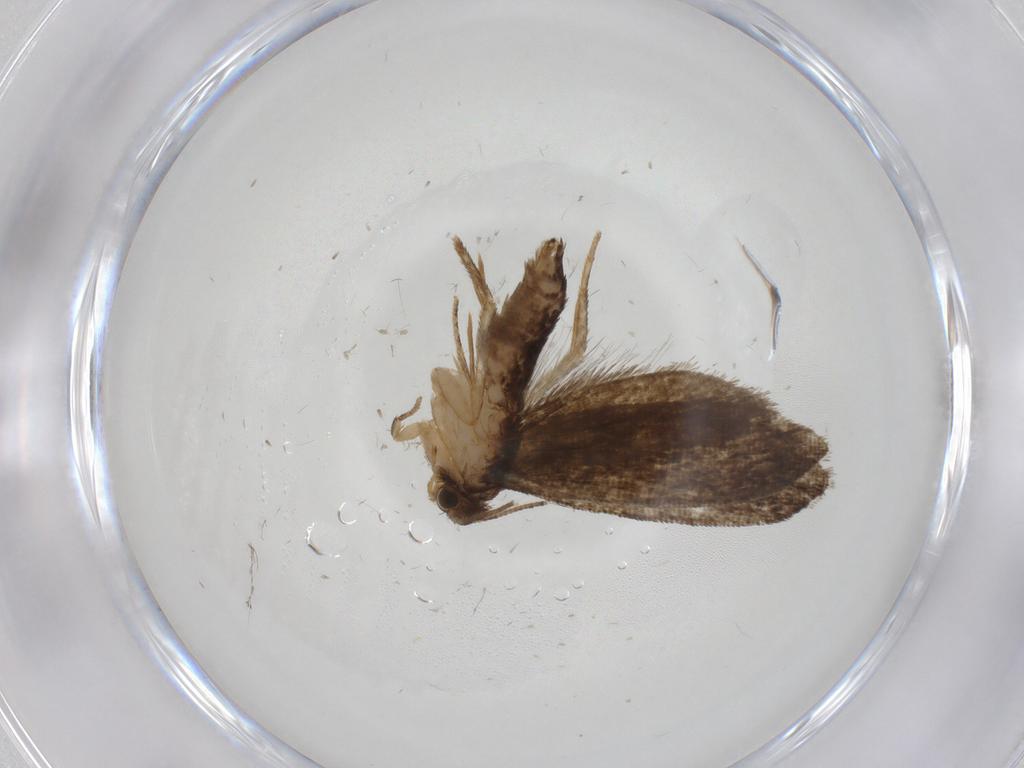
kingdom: Animalia
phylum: Arthropoda
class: Insecta
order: Lepidoptera
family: Crambidae
